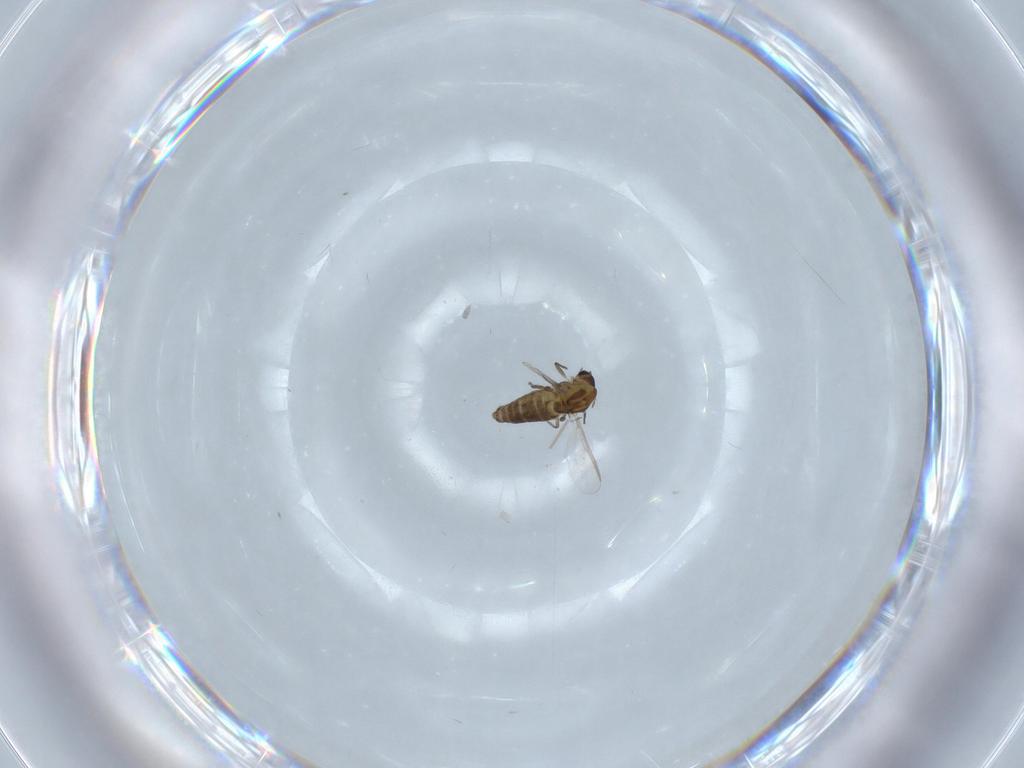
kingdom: Animalia
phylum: Arthropoda
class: Insecta
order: Diptera
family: Chironomidae
